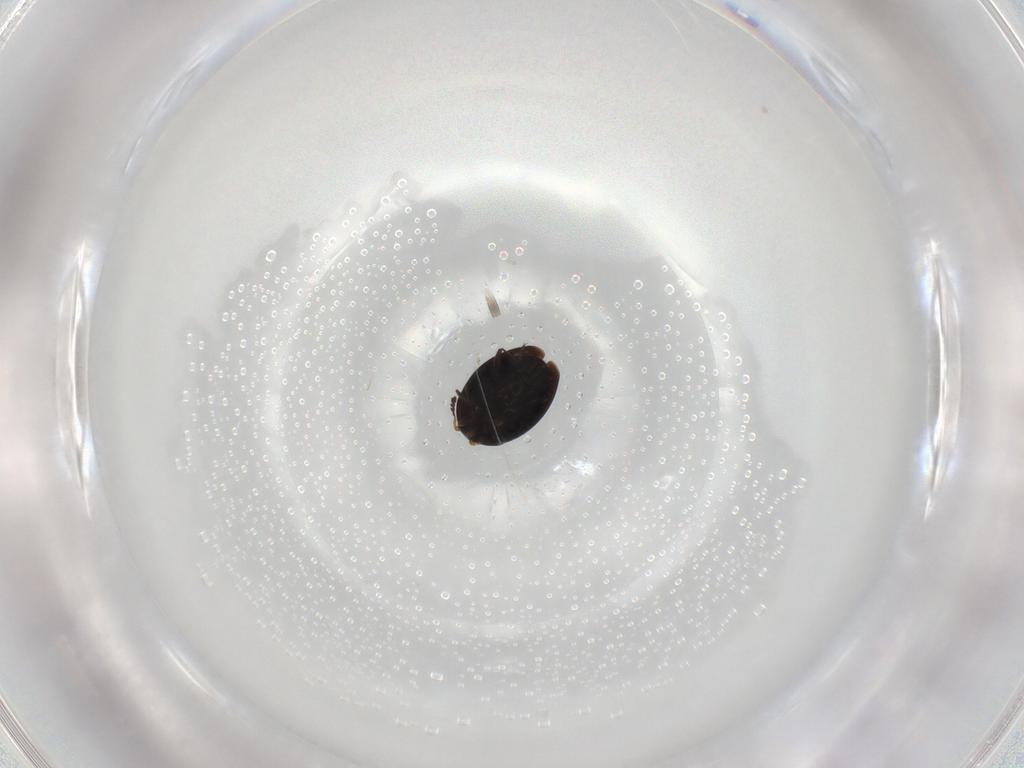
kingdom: Animalia
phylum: Arthropoda
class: Insecta
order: Coleoptera
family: Corylophidae
